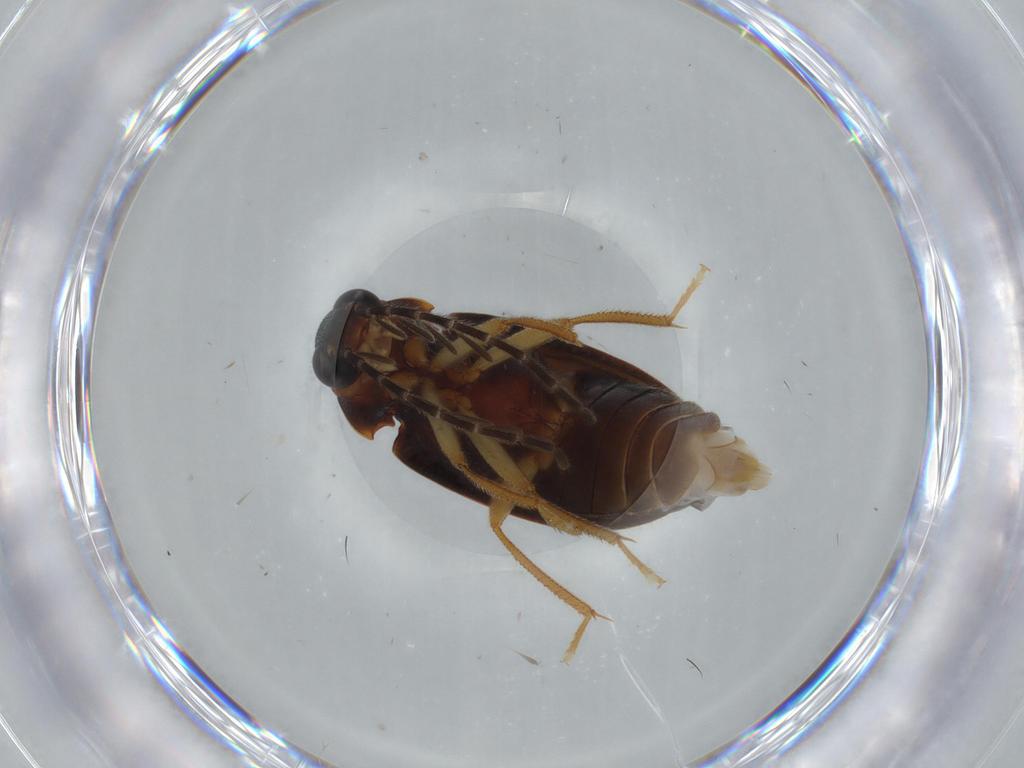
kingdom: Animalia
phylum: Arthropoda
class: Insecta
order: Coleoptera
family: Ptilodactylidae
